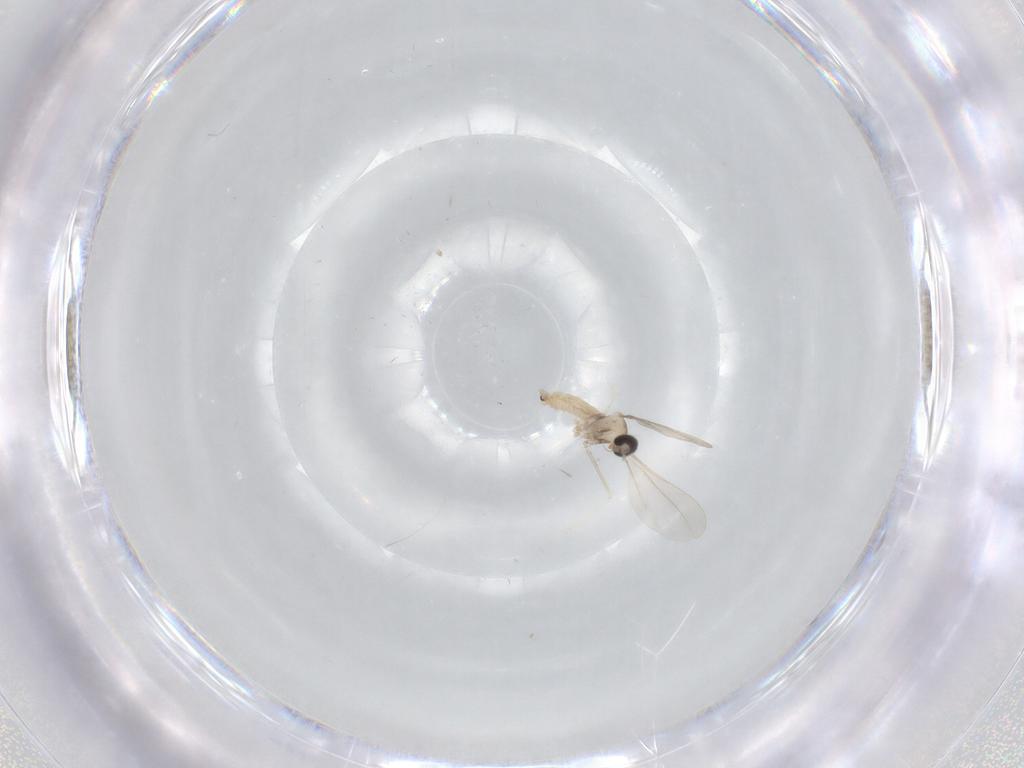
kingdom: Animalia
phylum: Arthropoda
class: Insecta
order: Diptera
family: Cecidomyiidae
